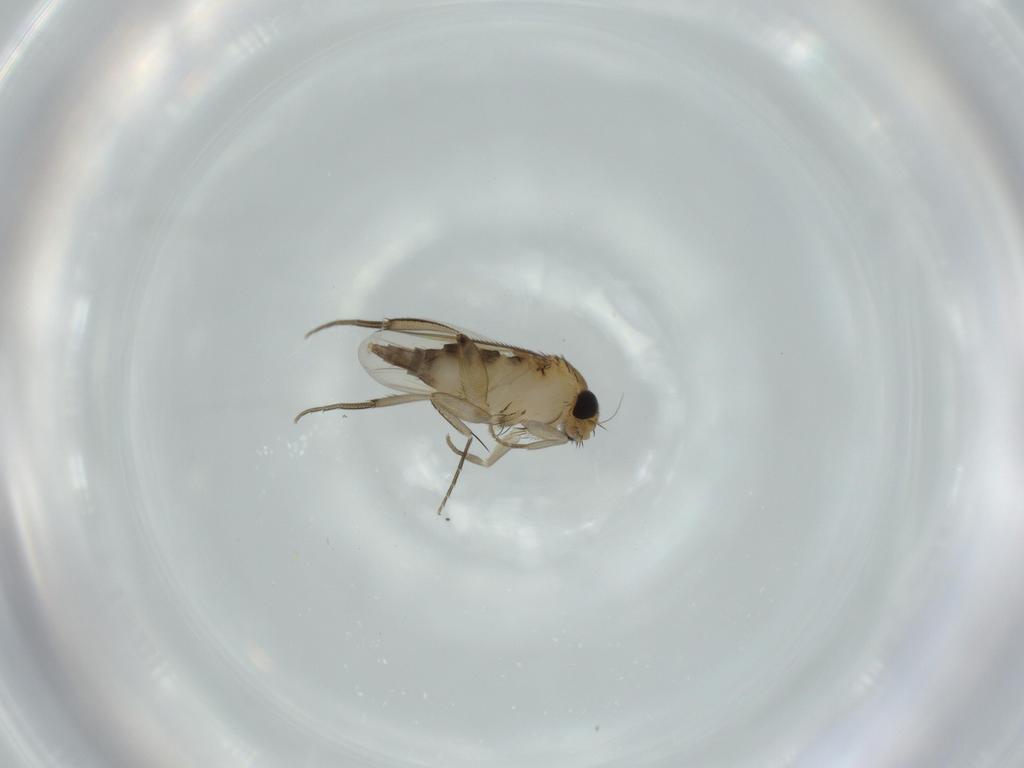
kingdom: Animalia
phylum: Arthropoda
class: Insecta
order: Diptera
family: Phoridae
